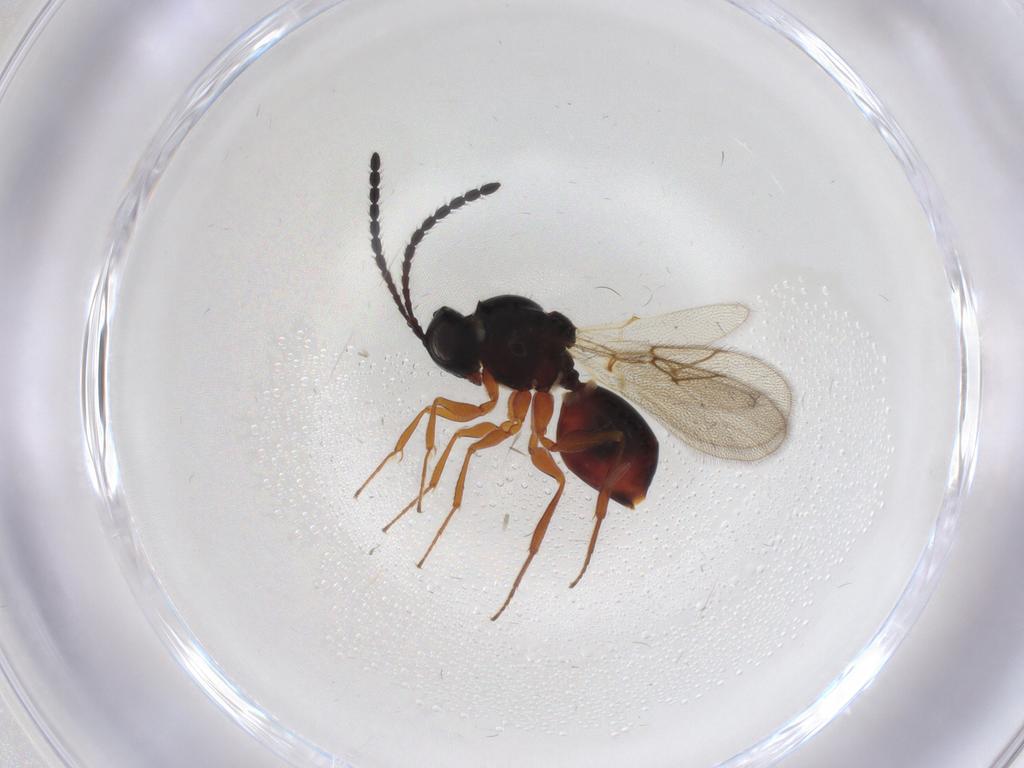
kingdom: Animalia
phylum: Arthropoda
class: Insecta
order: Hymenoptera
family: Figitidae
